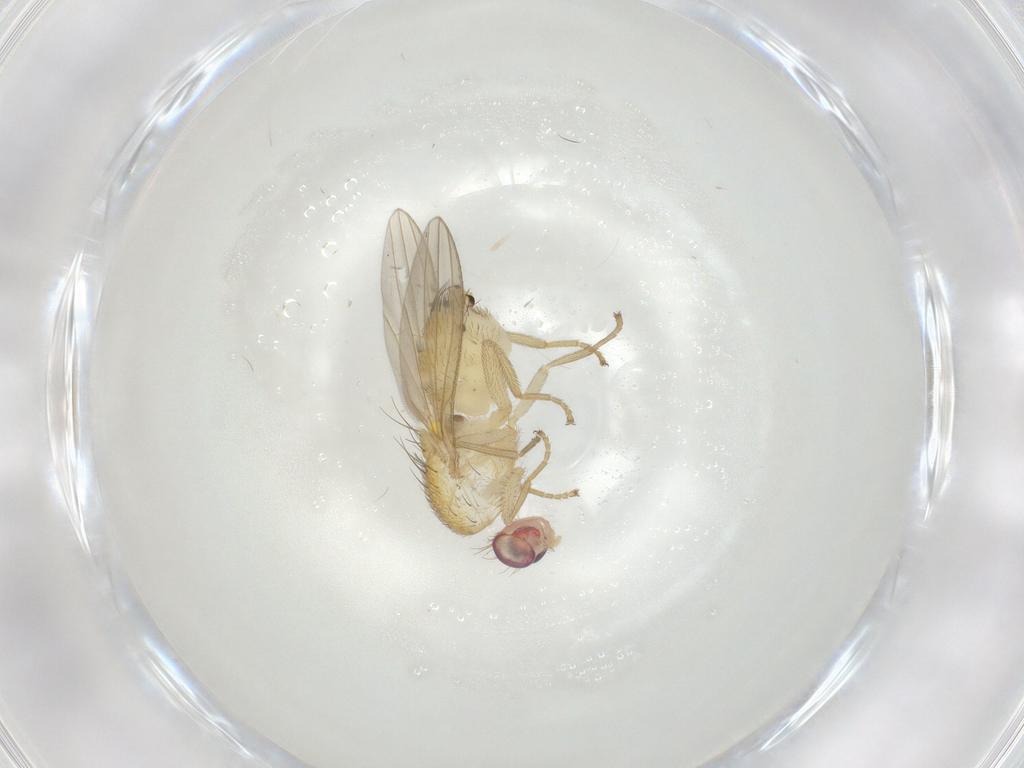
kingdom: Animalia
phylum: Arthropoda
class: Insecta
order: Diptera
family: Chyromyidae
